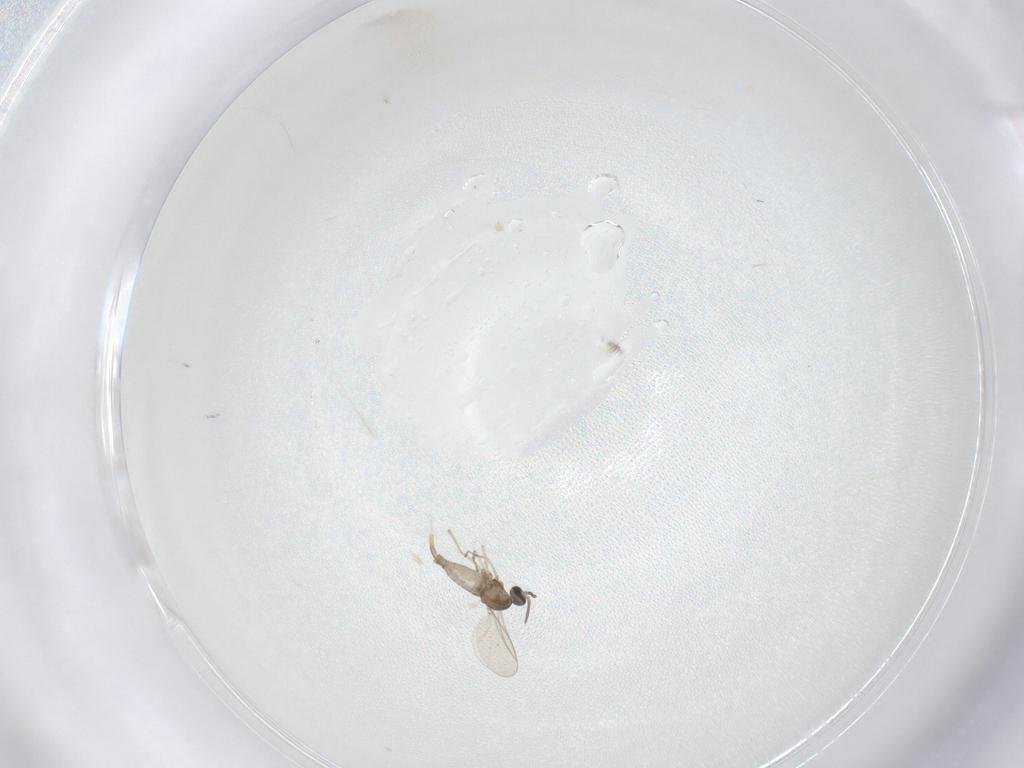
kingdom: Animalia
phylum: Arthropoda
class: Insecta
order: Diptera
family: Cecidomyiidae
